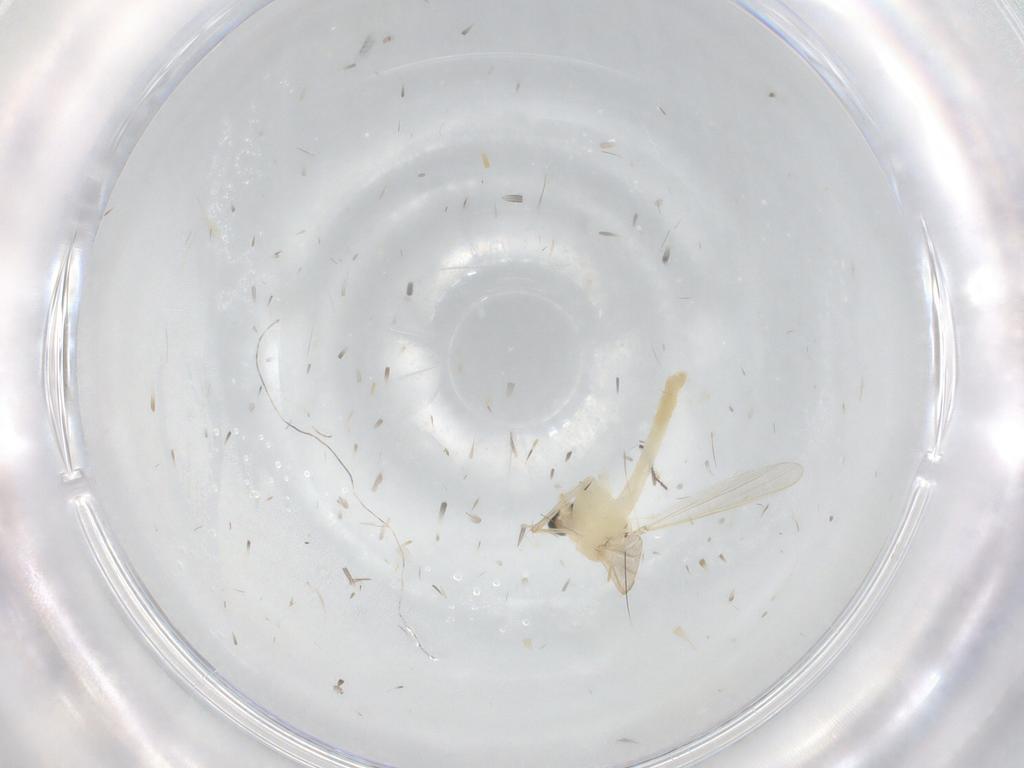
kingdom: Animalia
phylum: Arthropoda
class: Insecta
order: Diptera
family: Chironomidae
